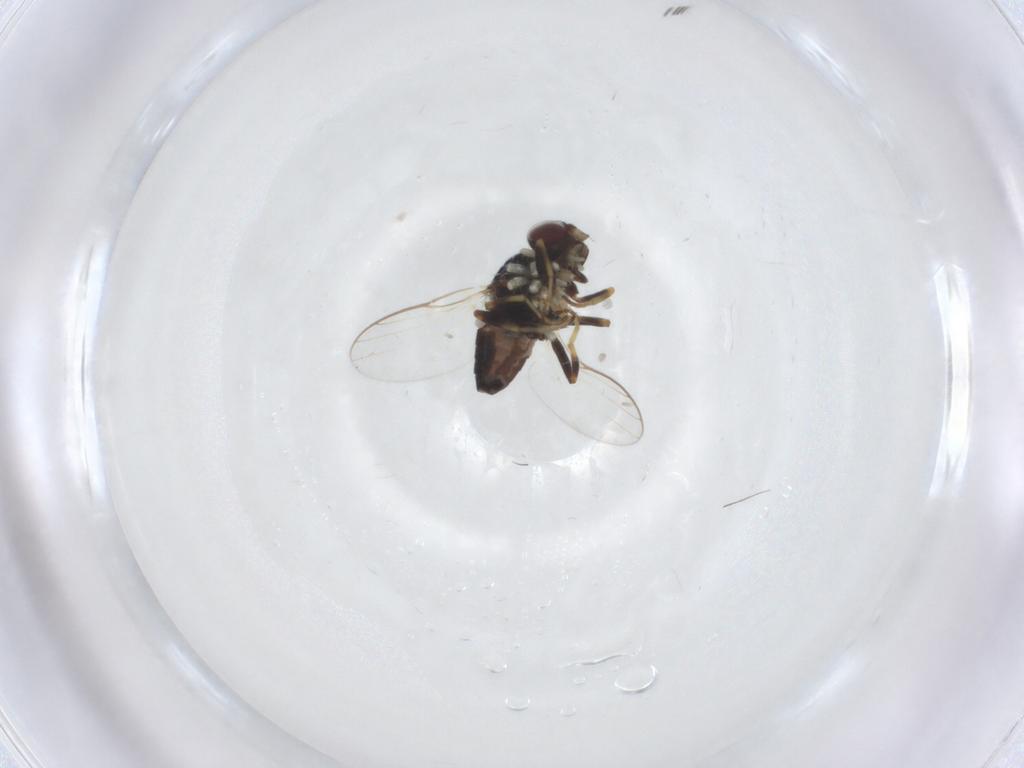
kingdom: Animalia
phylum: Arthropoda
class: Insecta
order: Diptera
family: Chloropidae
